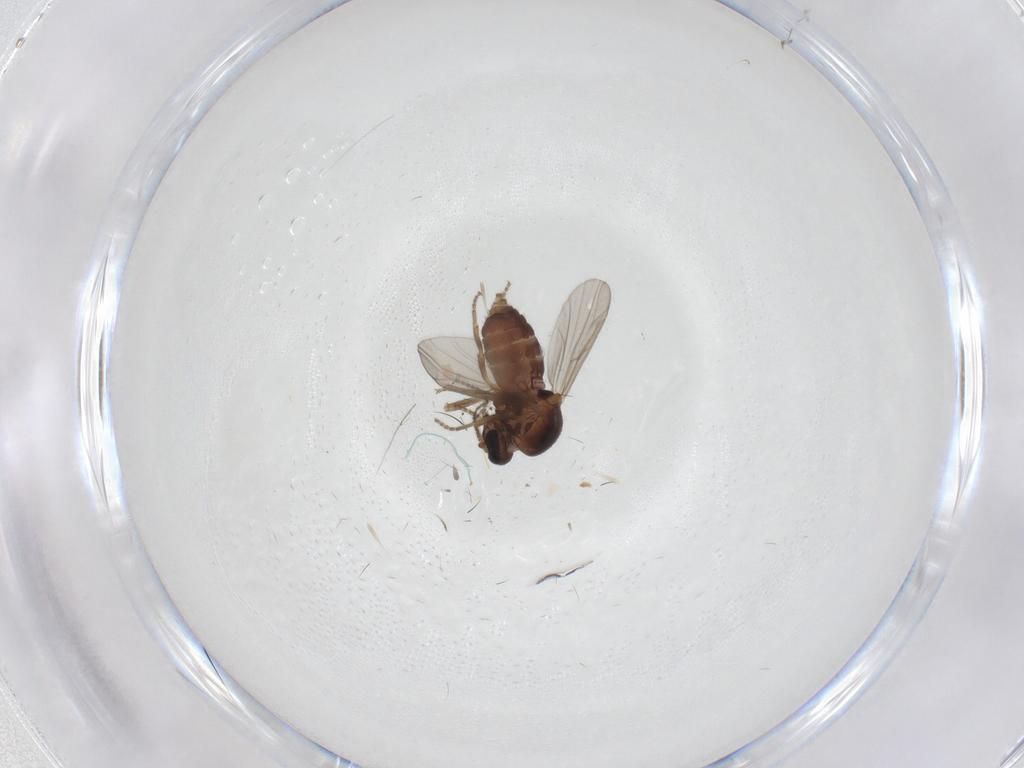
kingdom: Animalia
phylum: Arthropoda
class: Insecta
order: Diptera
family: Ceratopogonidae
